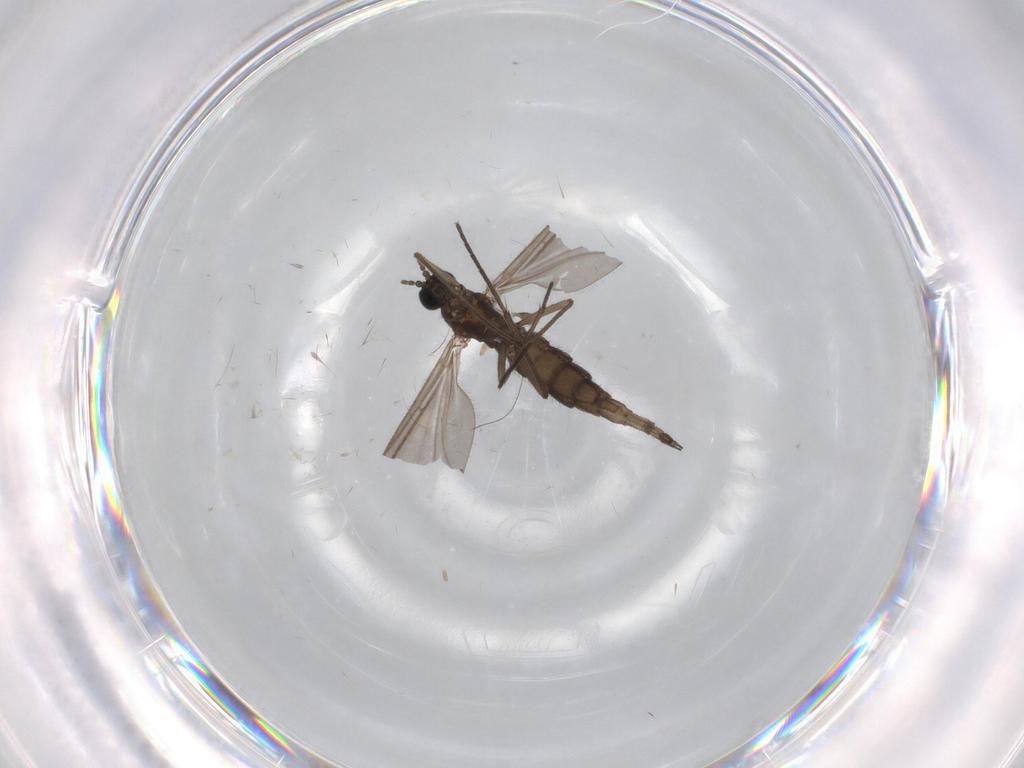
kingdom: Animalia
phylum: Arthropoda
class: Insecta
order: Diptera
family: Sciaridae
